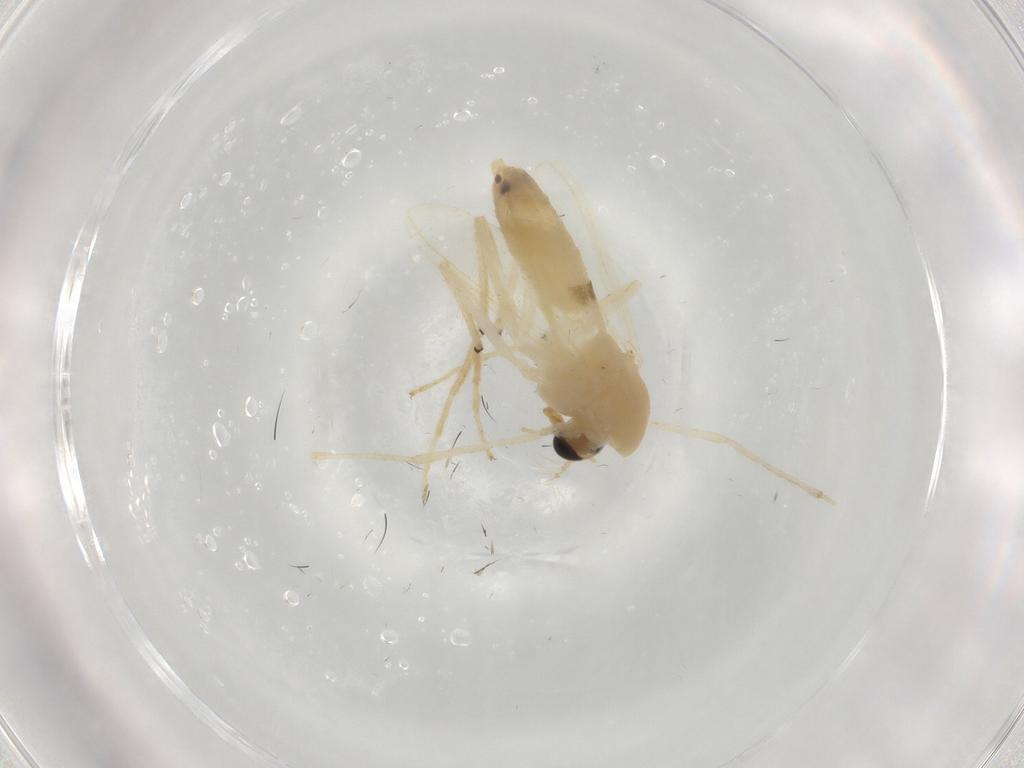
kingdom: Animalia
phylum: Arthropoda
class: Insecta
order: Diptera
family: Chironomidae
